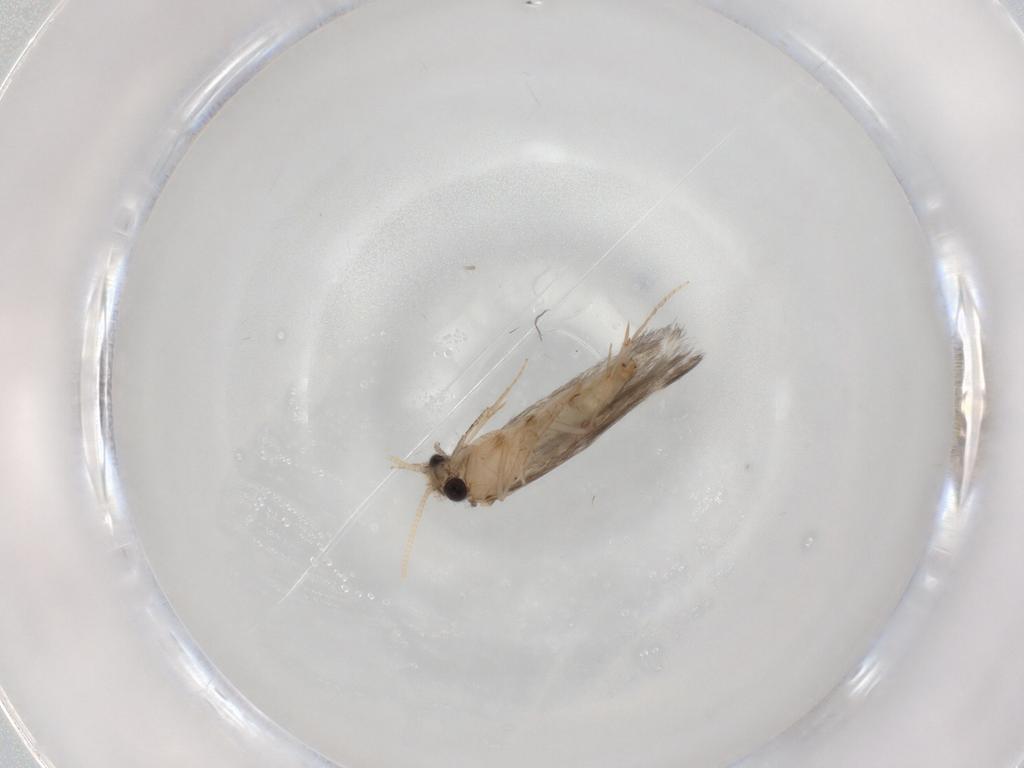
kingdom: Animalia
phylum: Arthropoda
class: Insecta
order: Trichoptera
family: Hydroptilidae
